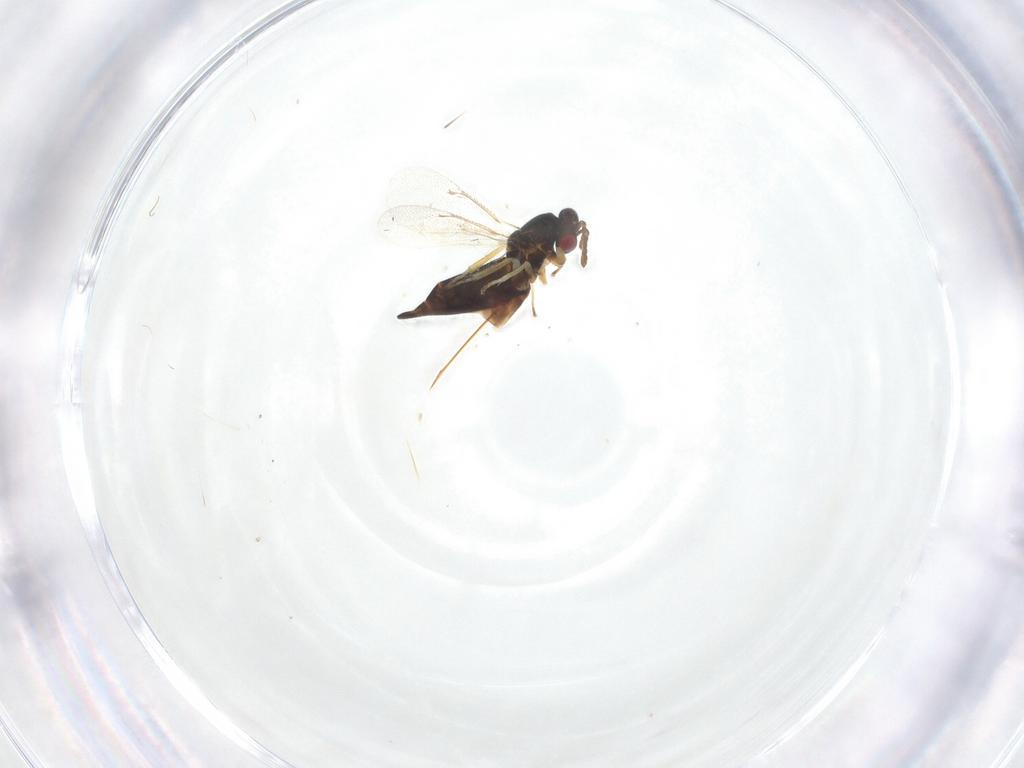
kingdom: Animalia
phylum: Arthropoda
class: Insecta
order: Hymenoptera
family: Eulophidae
